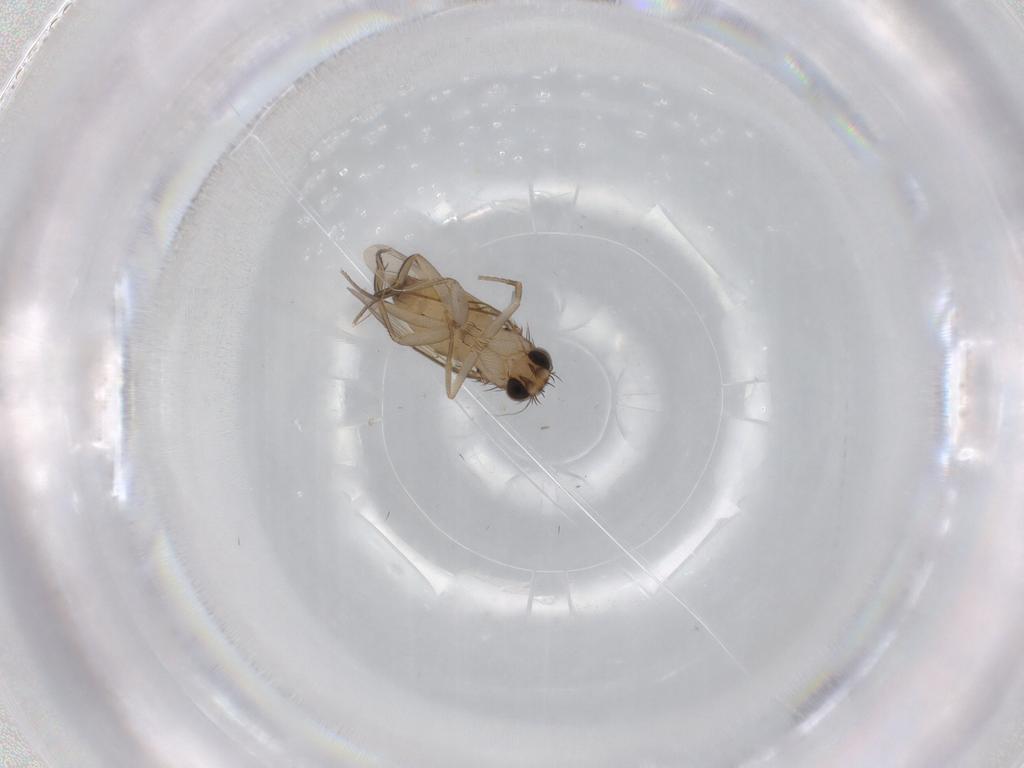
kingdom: Animalia
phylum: Arthropoda
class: Insecta
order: Diptera
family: Phoridae
